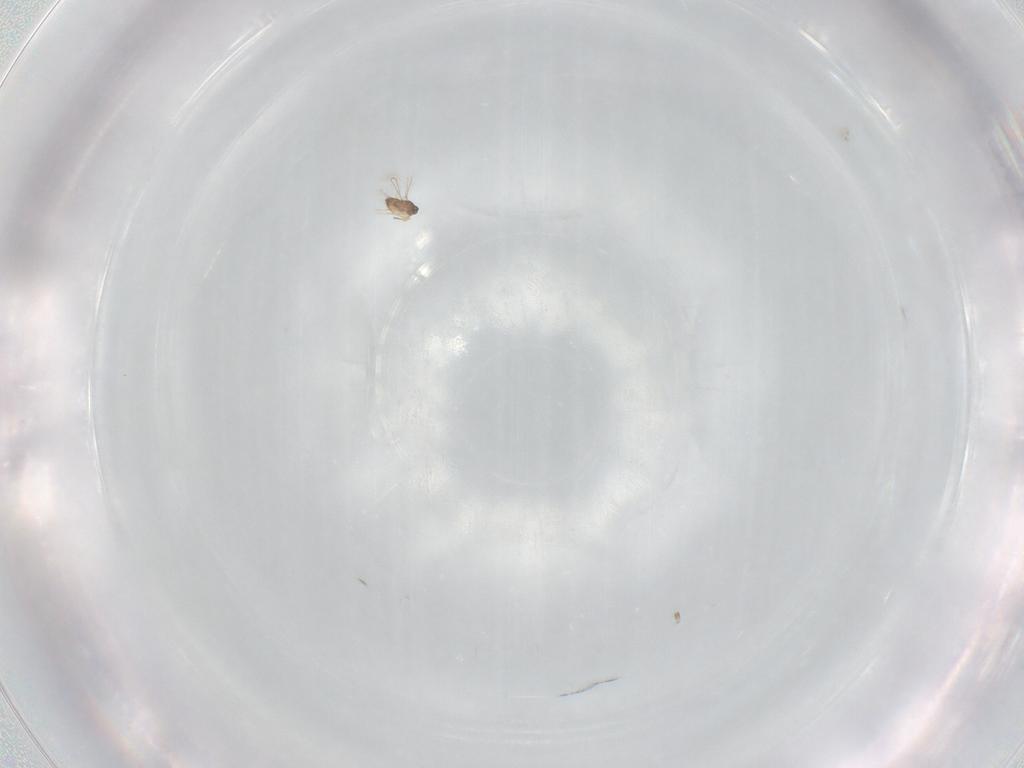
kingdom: Animalia
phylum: Arthropoda
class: Insecta
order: Hymenoptera
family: Mymaridae
